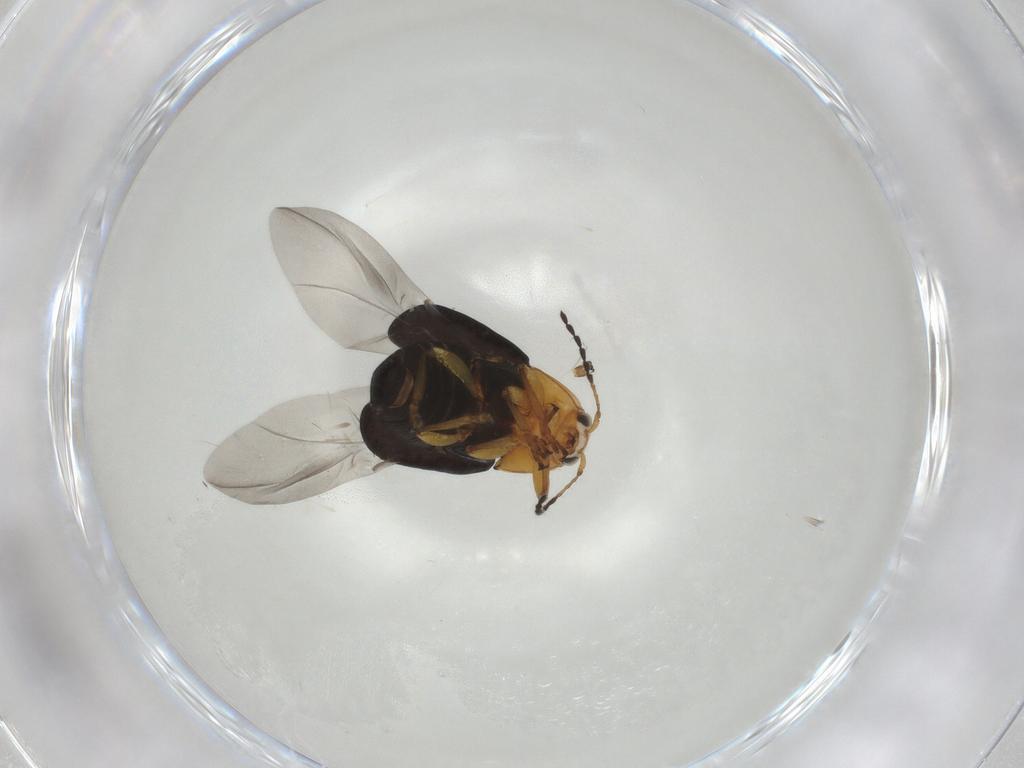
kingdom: Animalia
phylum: Arthropoda
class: Insecta
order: Coleoptera
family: Chrysomelidae
